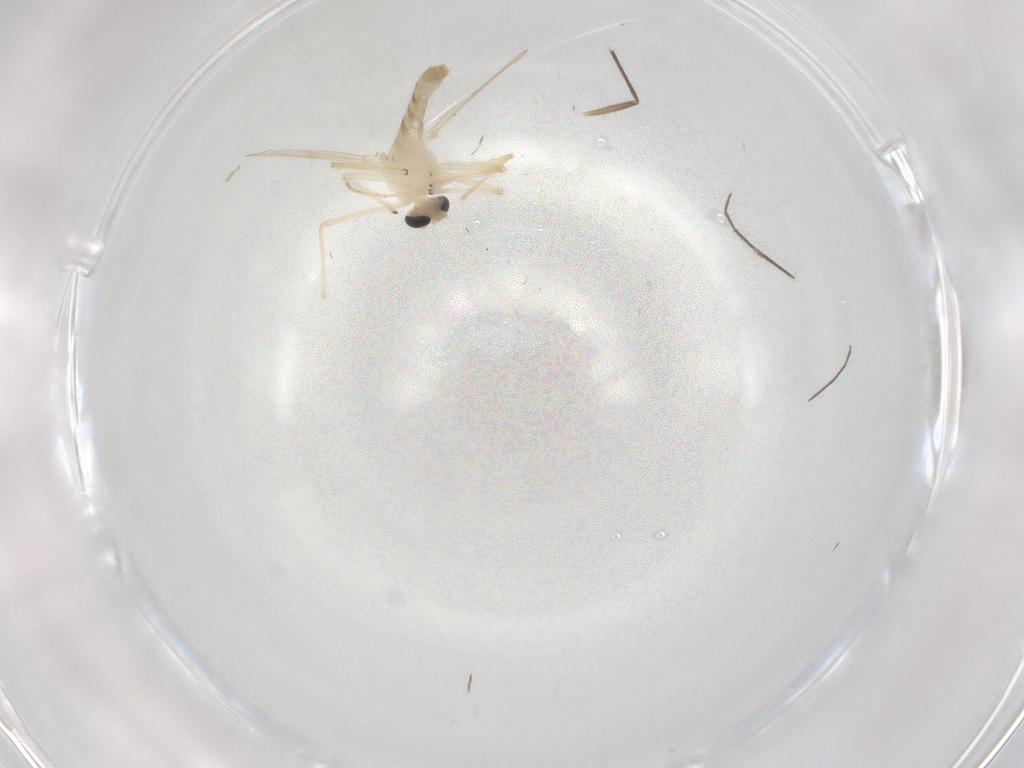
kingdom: Animalia
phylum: Arthropoda
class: Insecta
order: Diptera
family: Chironomidae
